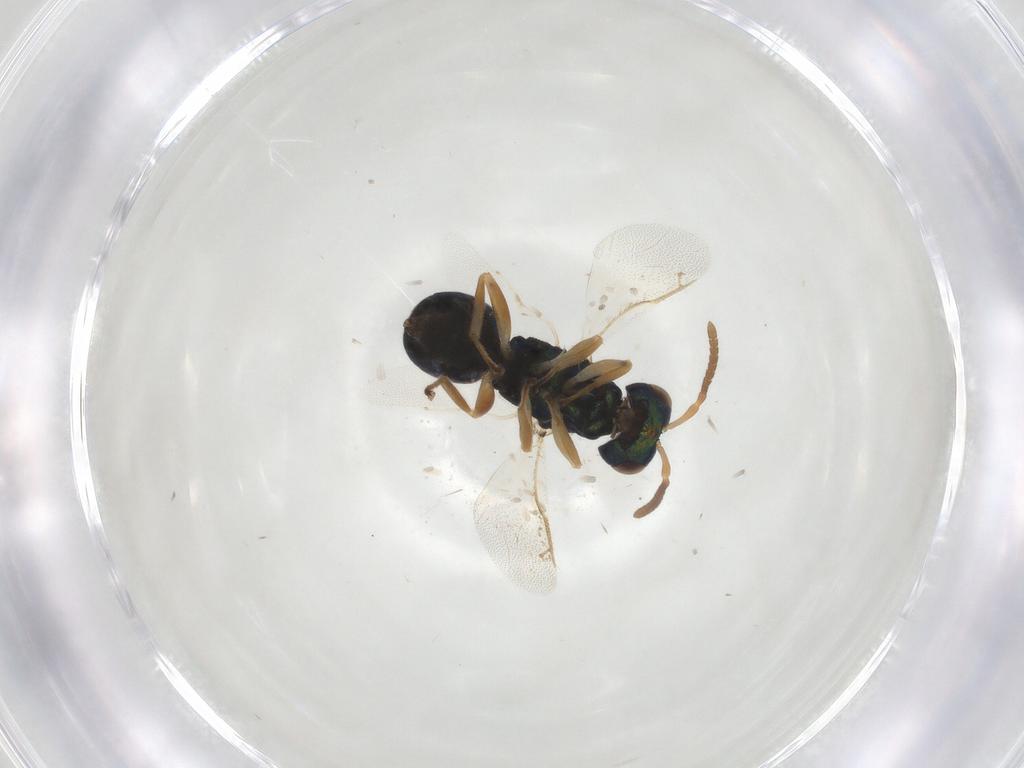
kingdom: Animalia
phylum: Arthropoda
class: Insecta
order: Hymenoptera
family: Pteromalidae
